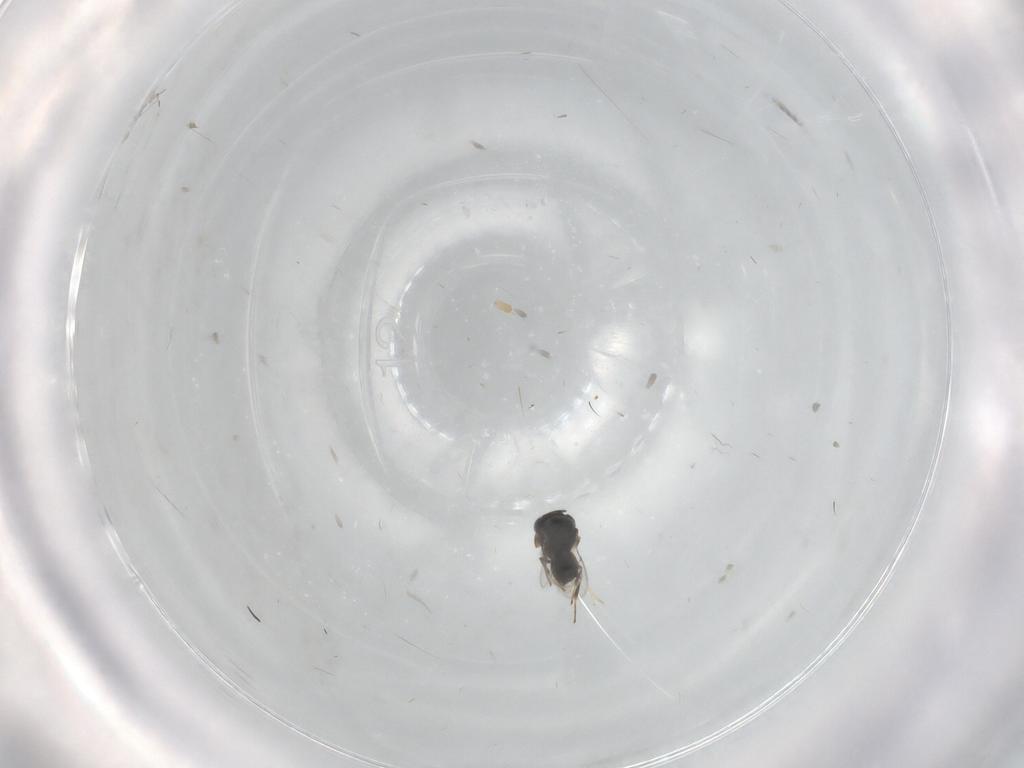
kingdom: Animalia
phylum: Arthropoda
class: Insecta
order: Hymenoptera
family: Scelionidae
